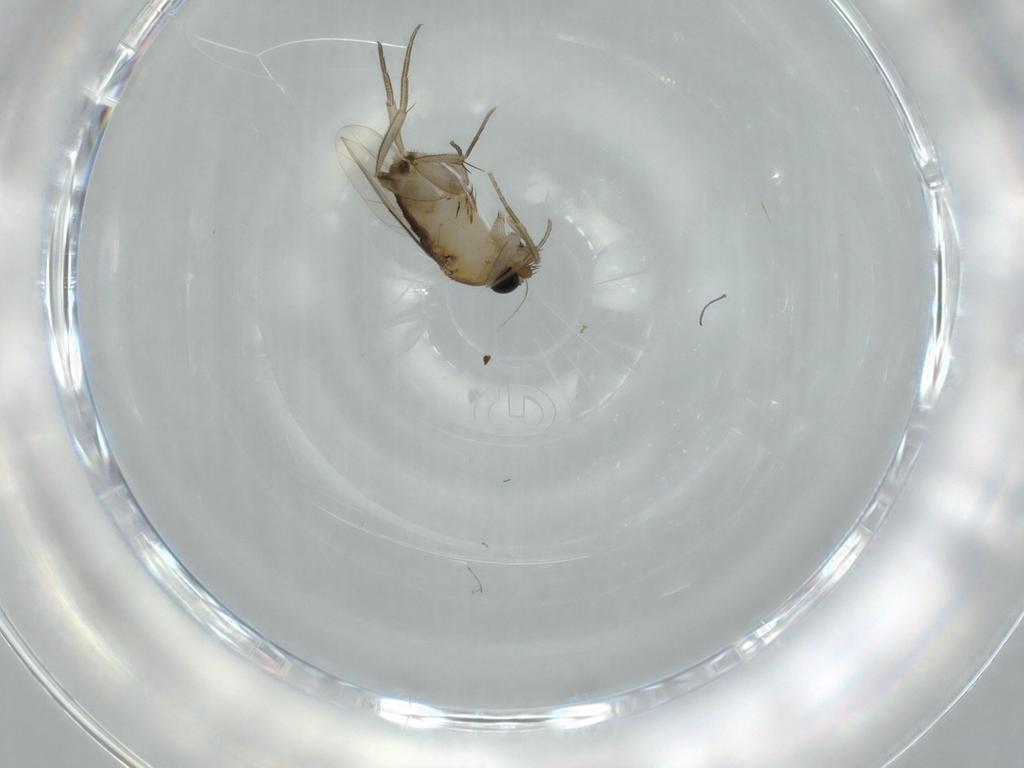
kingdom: Animalia
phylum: Arthropoda
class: Insecta
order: Diptera
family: Phoridae
